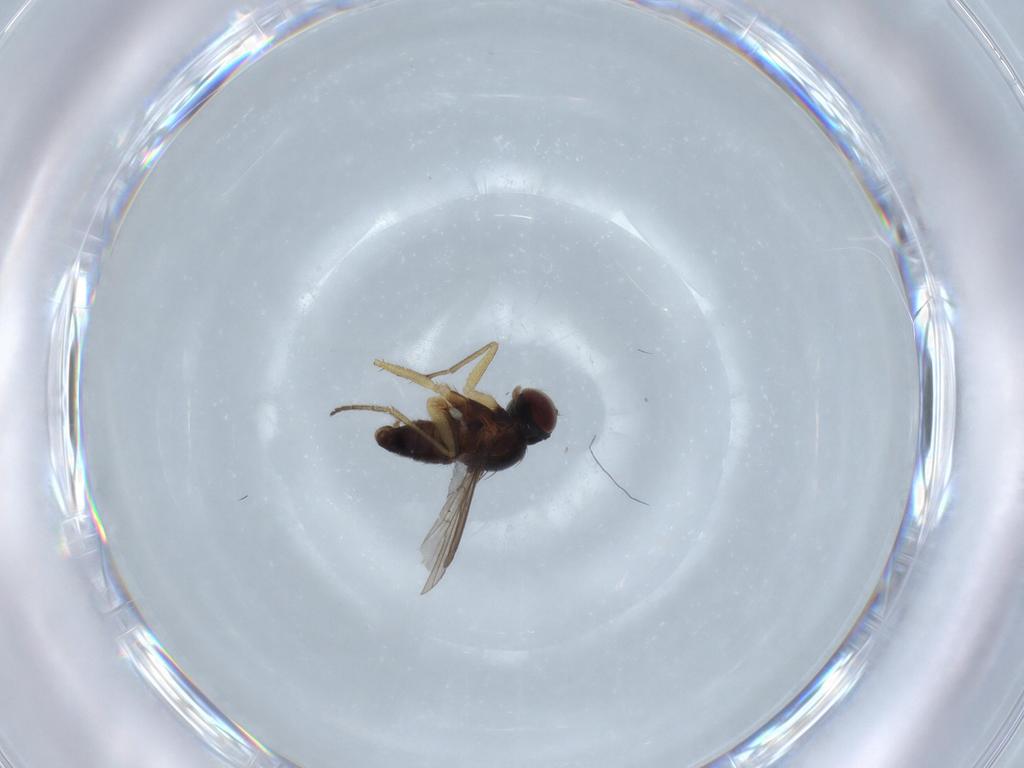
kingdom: Animalia
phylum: Arthropoda
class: Insecta
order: Diptera
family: Dolichopodidae
